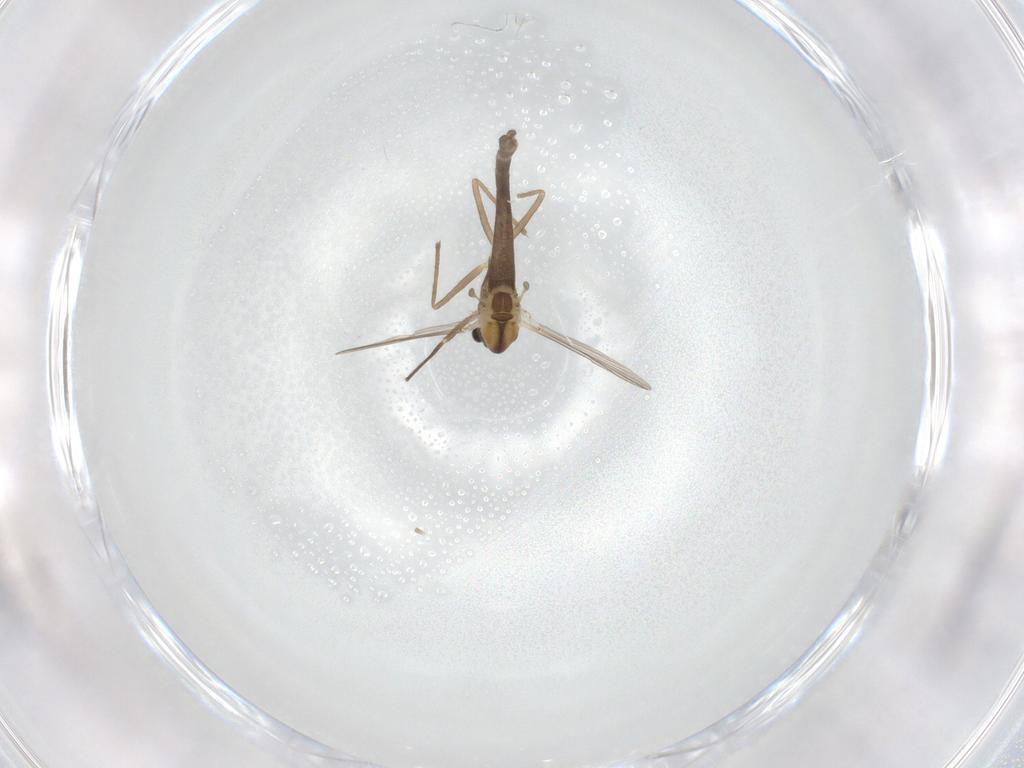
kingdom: Animalia
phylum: Arthropoda
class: Insecta
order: Diptera
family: Chironomidae
